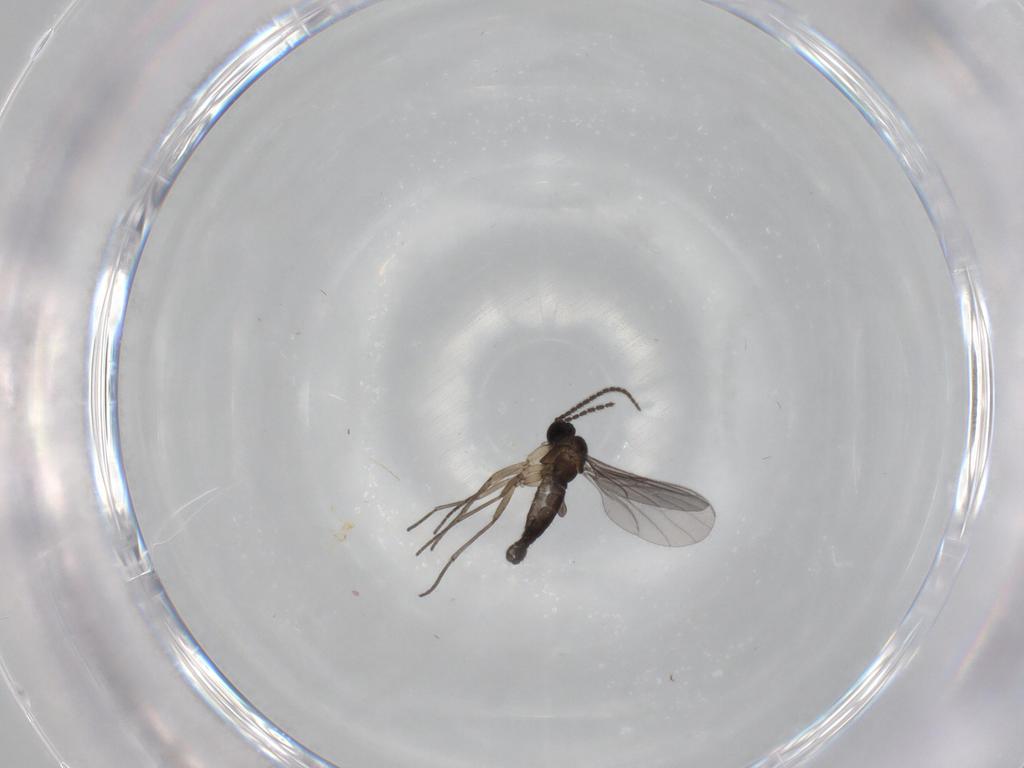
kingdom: Animalia
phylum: Arthropoda
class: Insecta
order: Diptera
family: Sciaridae
